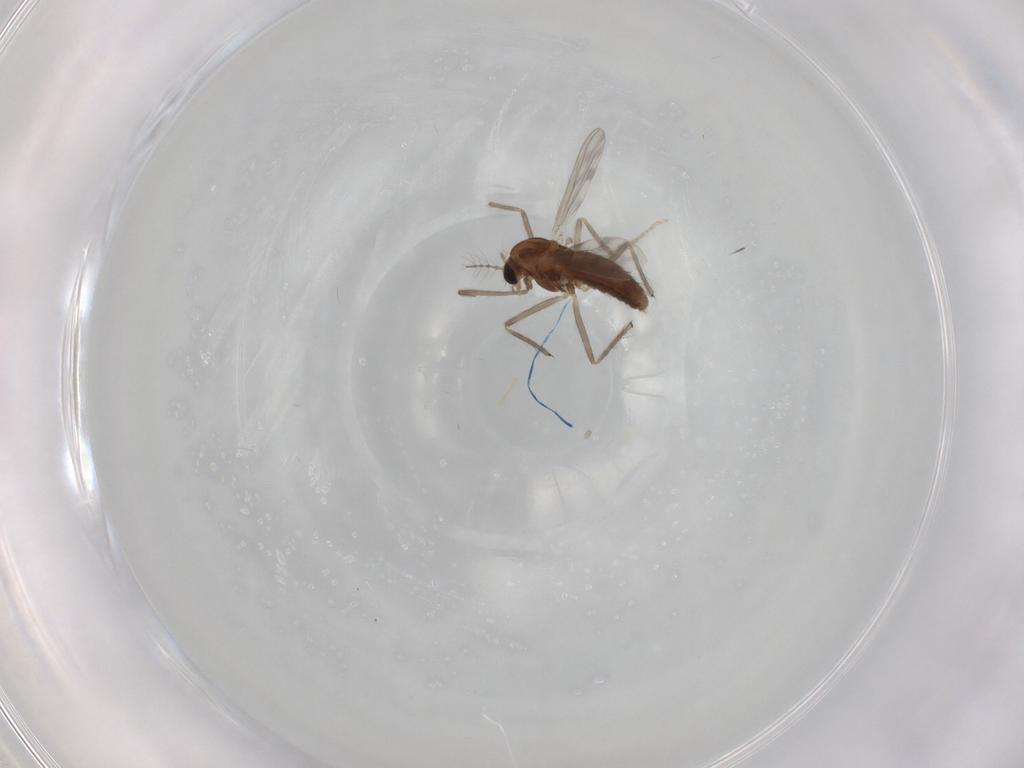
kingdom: Animalia
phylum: Arthropoda
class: Insecta
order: Diptera
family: Chironomidae
